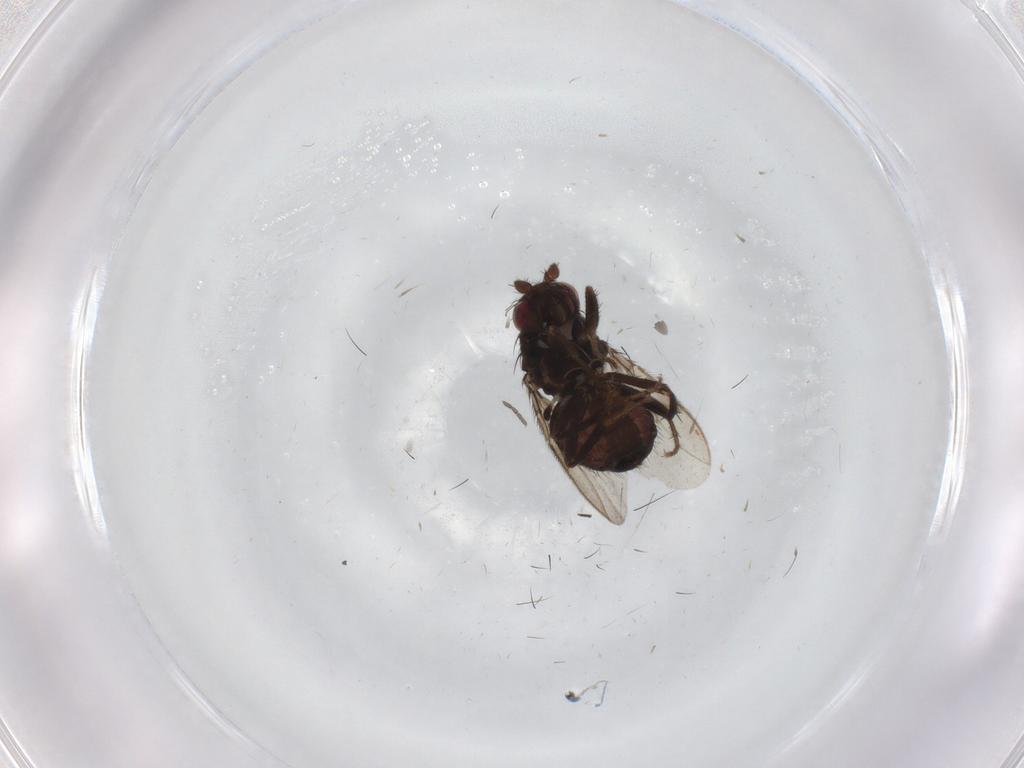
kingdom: Animalia
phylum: Arthropoda
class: Insecta
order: Diptera
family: Sphaeroceridae
